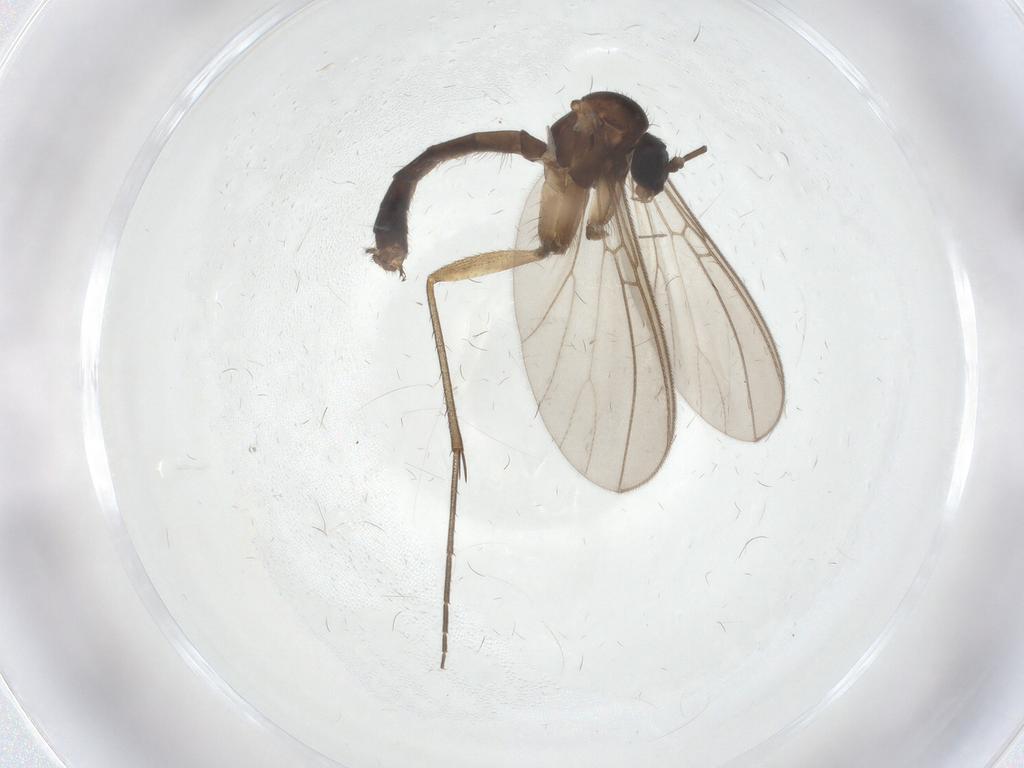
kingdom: Animalia
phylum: Arthropoda
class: Insecta
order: Diptera
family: Mycetophilidae
